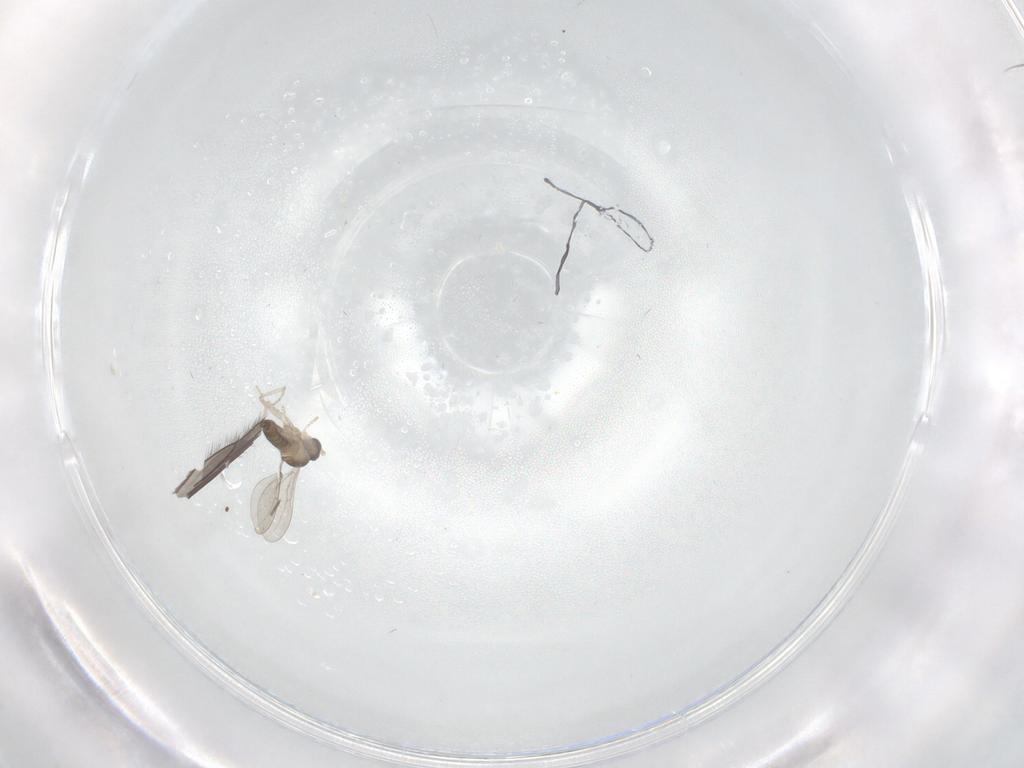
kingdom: Animalia
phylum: Arthropoda
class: Insecta
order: Diptera
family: Cecidomyiidae
